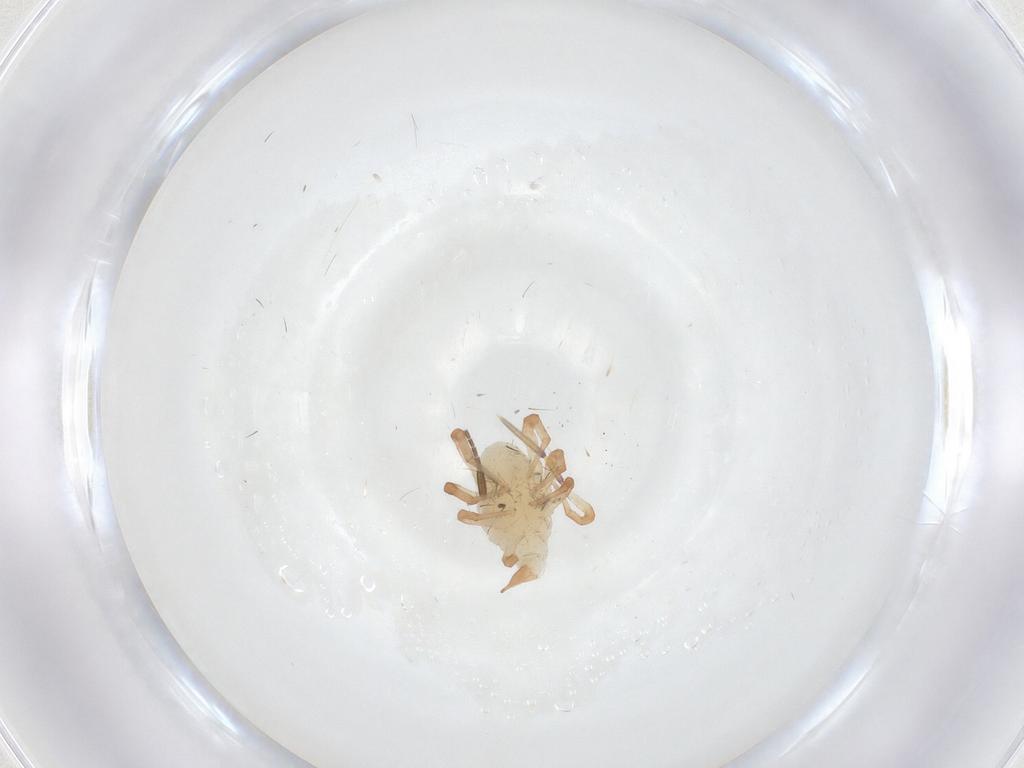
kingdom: Animalia
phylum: Arthropoda
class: Arachnida
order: Trombidiformes
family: Bdellidae
